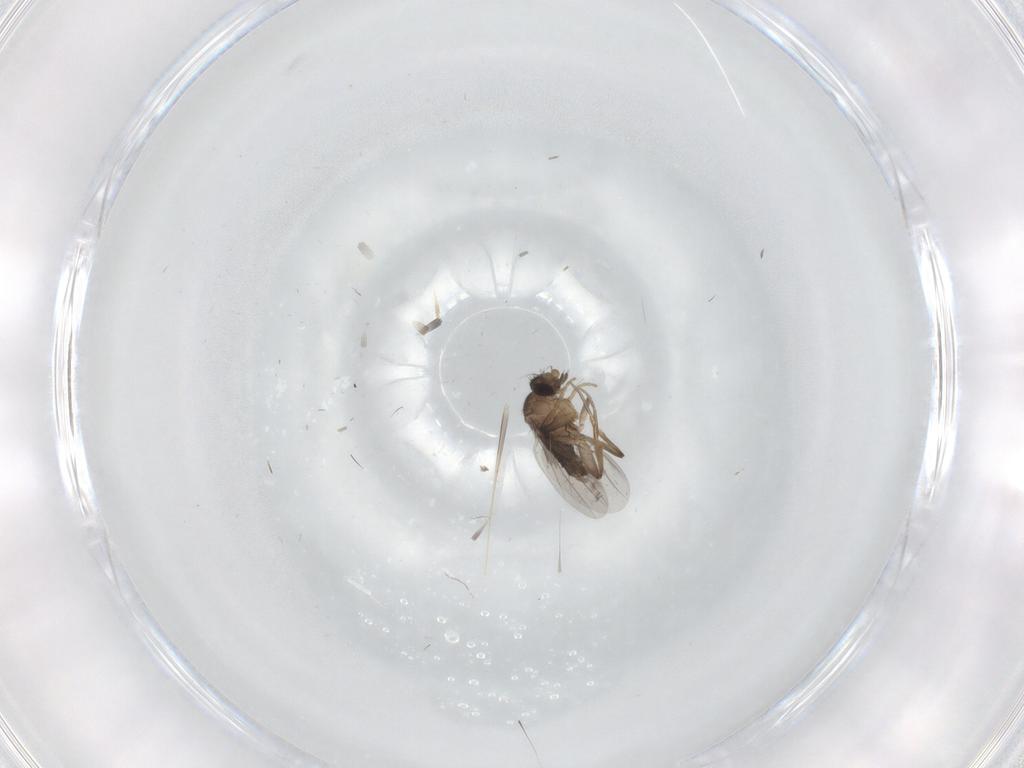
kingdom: Animalia
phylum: Arthropoda
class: Insecta
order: Diptera
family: Phoridae
